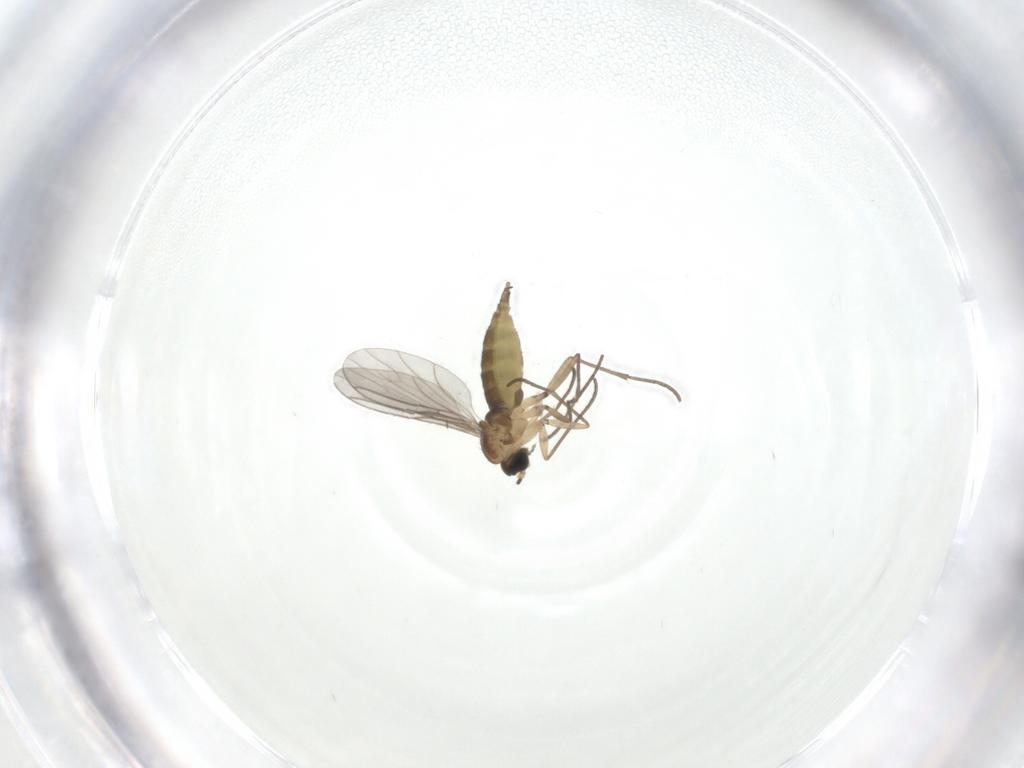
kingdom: Animalia
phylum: Arthropoda
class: Insecta
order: Diptera
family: Sciaridae
